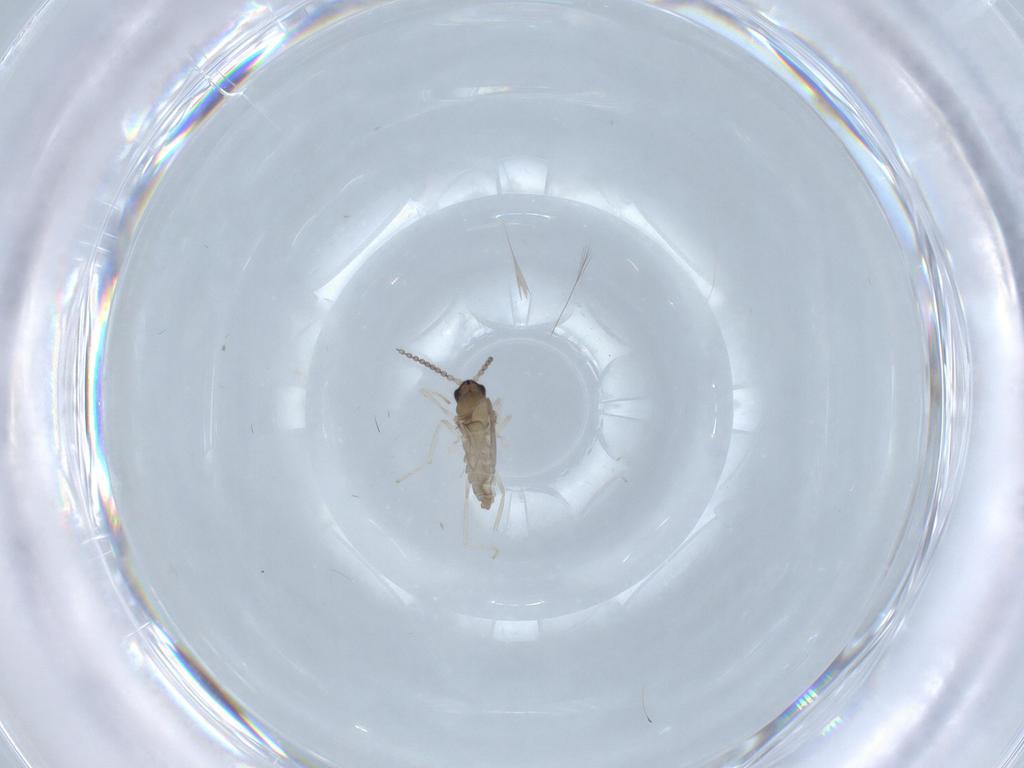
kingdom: Animalia
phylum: Arthropoda
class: Insecta
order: Diptera
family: Cecidomyiidae
